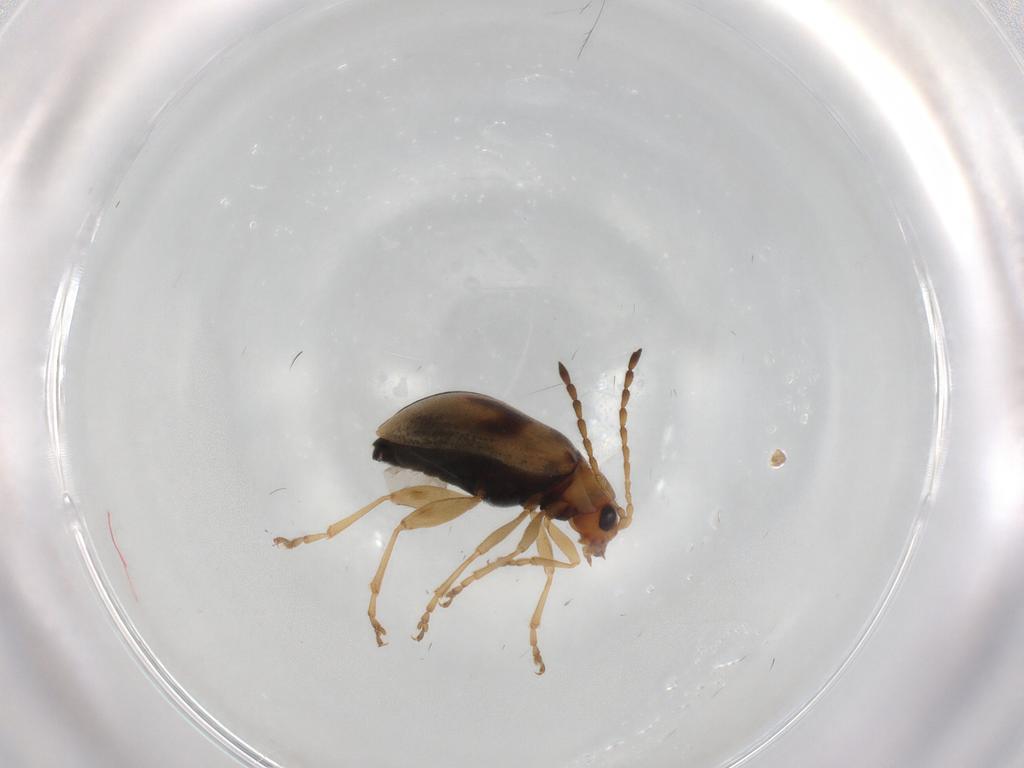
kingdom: Animalia
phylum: Arthropoda
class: Insecta
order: Coleoptera
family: Chrysomelidae
